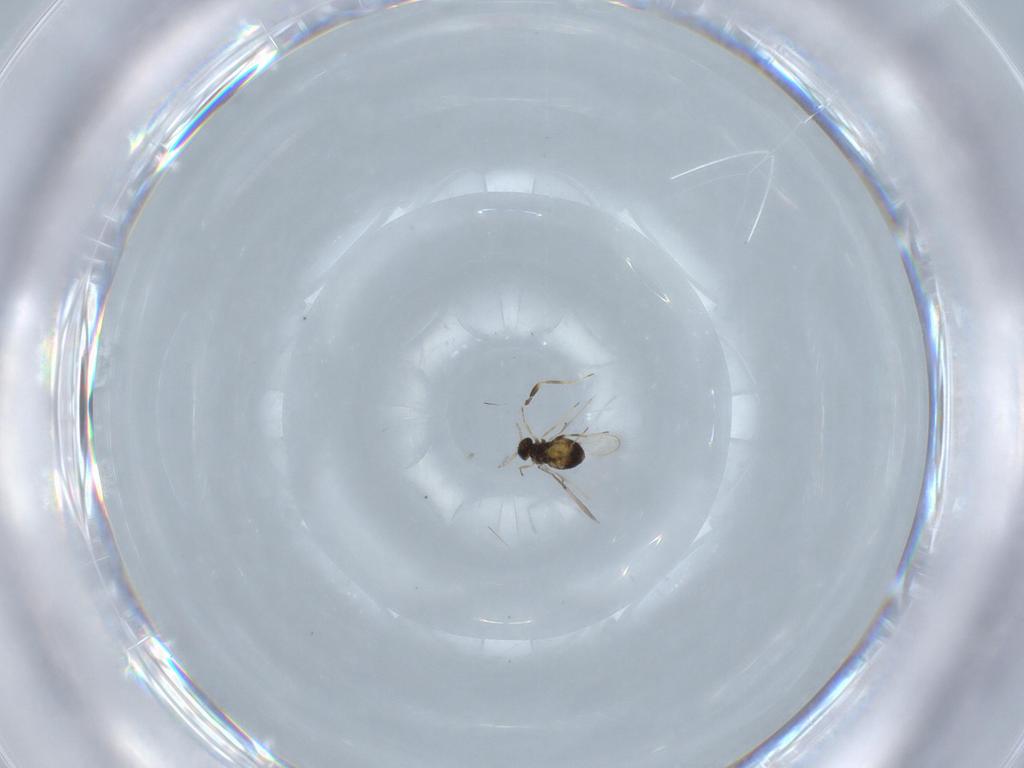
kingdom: Animalia
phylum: Arthropoda
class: Insecta
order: Hymenoptera
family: Trichogrammatidae
